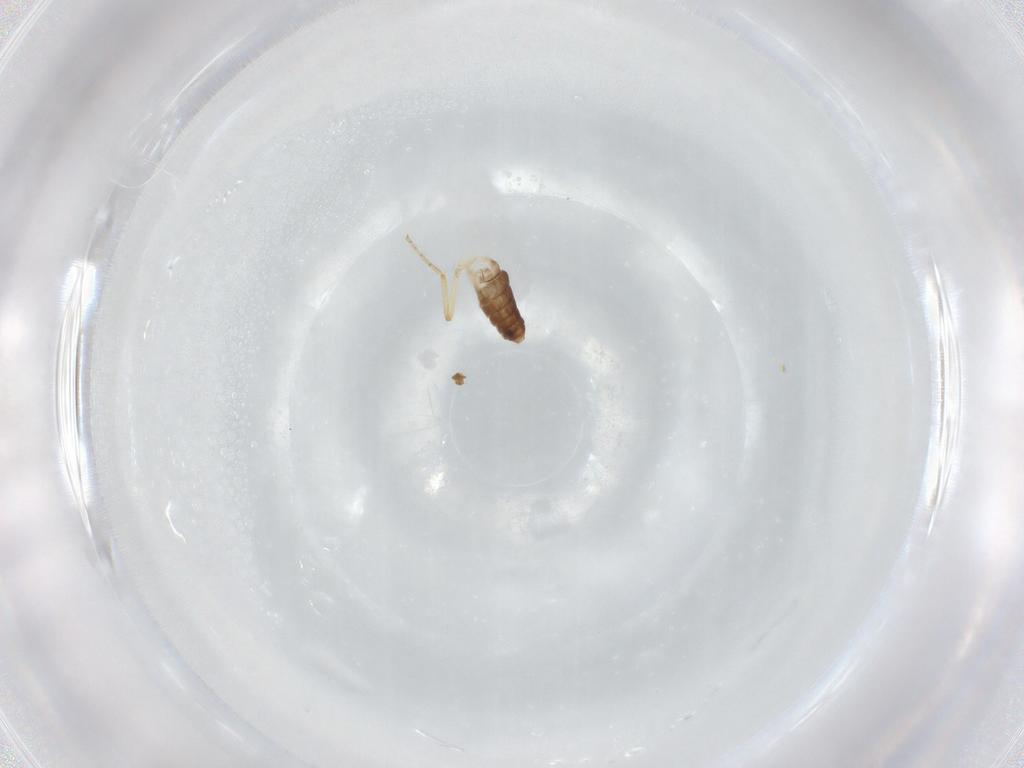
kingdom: Animalia
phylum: Arthropoda
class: Insecta
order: Diptera
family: Ceratopogonidae
